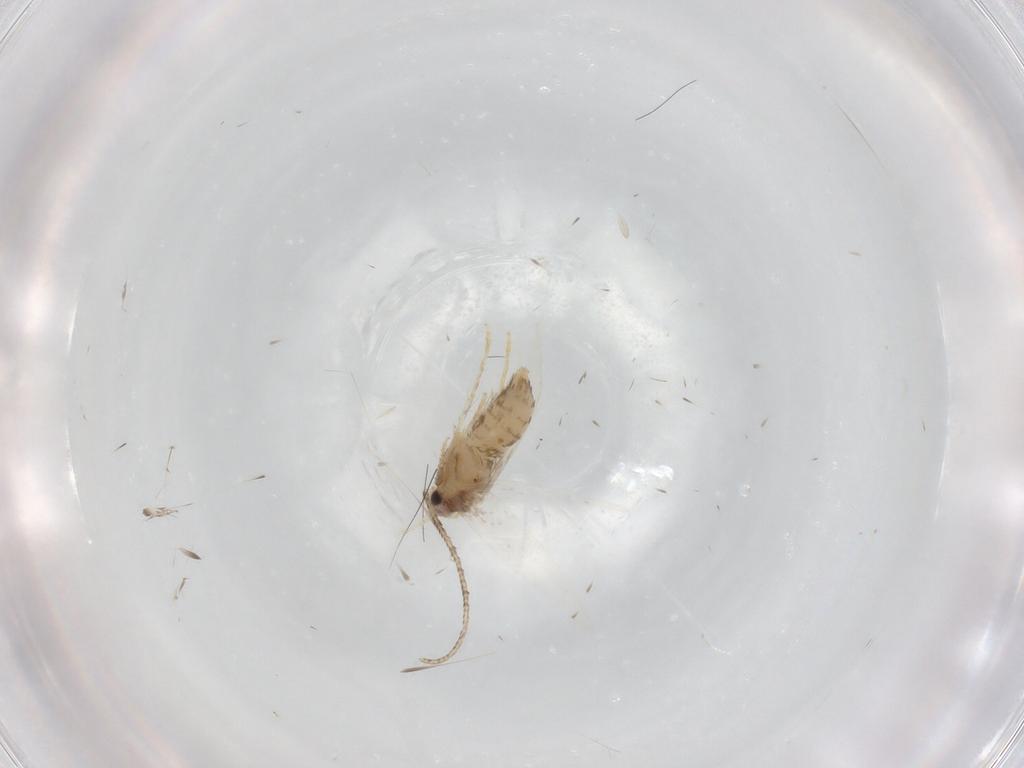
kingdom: Animalia
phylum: Arthropoda
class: Insecta
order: Lepidoptera
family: Nepticulidae
